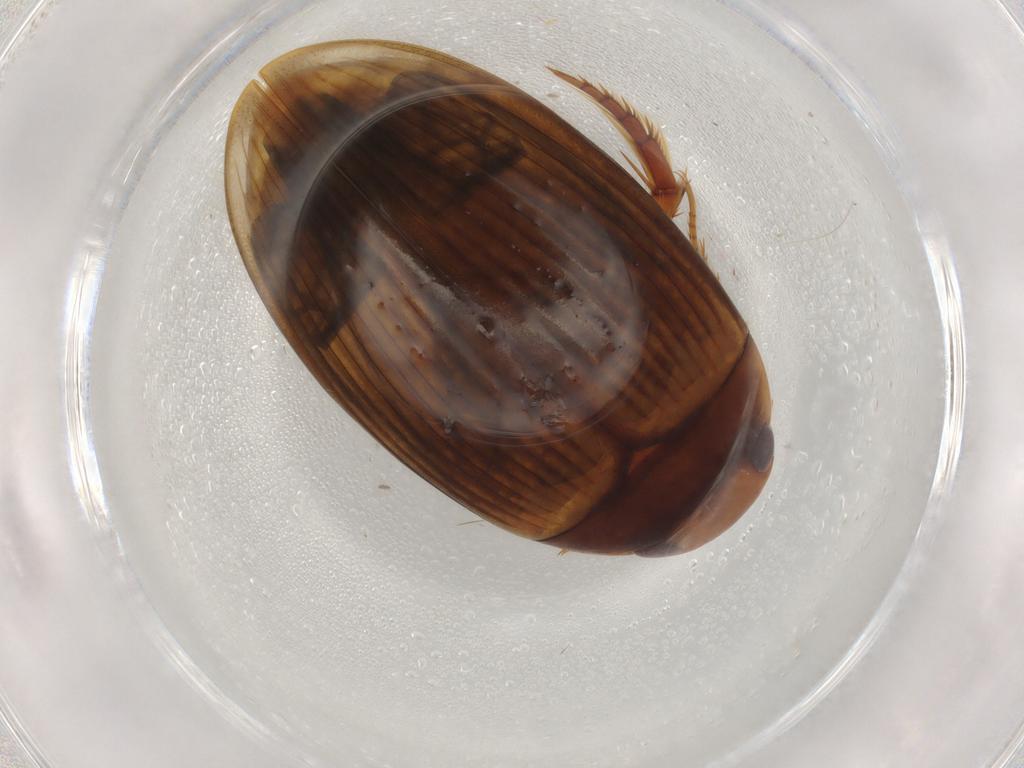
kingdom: Animalia
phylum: Arthropoda
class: Insecta
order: Coleoptera
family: Dytiscidae
